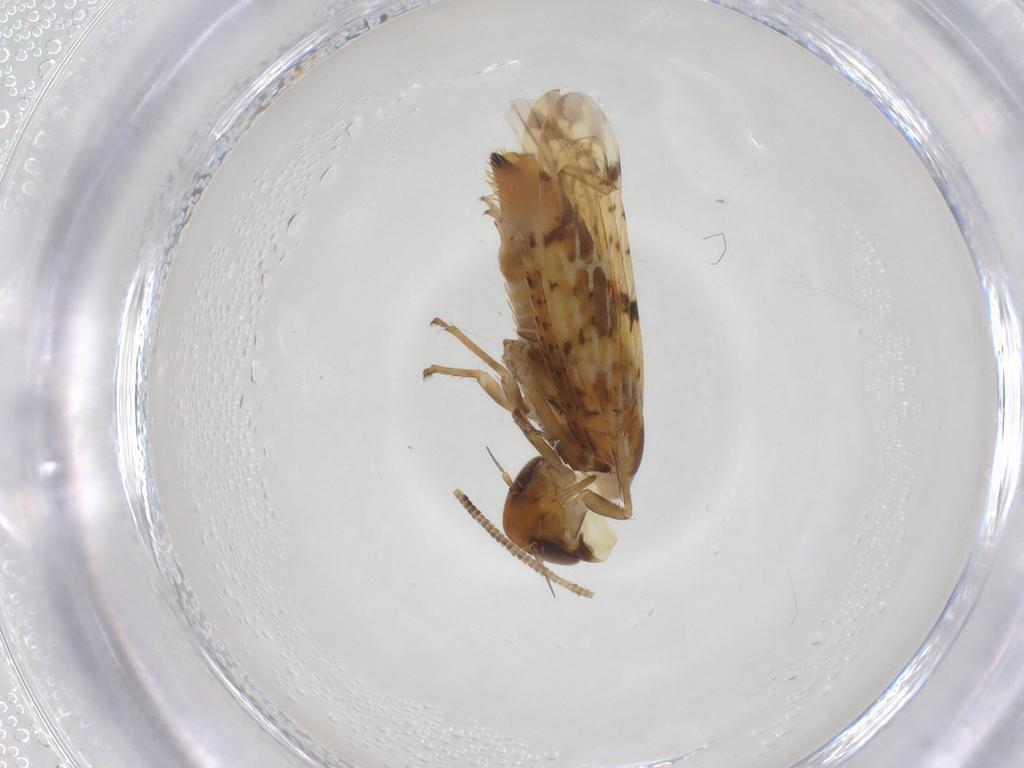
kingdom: Animalia
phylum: Arthropoda
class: Insecta
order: Hemiptera
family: Cicadellidae
